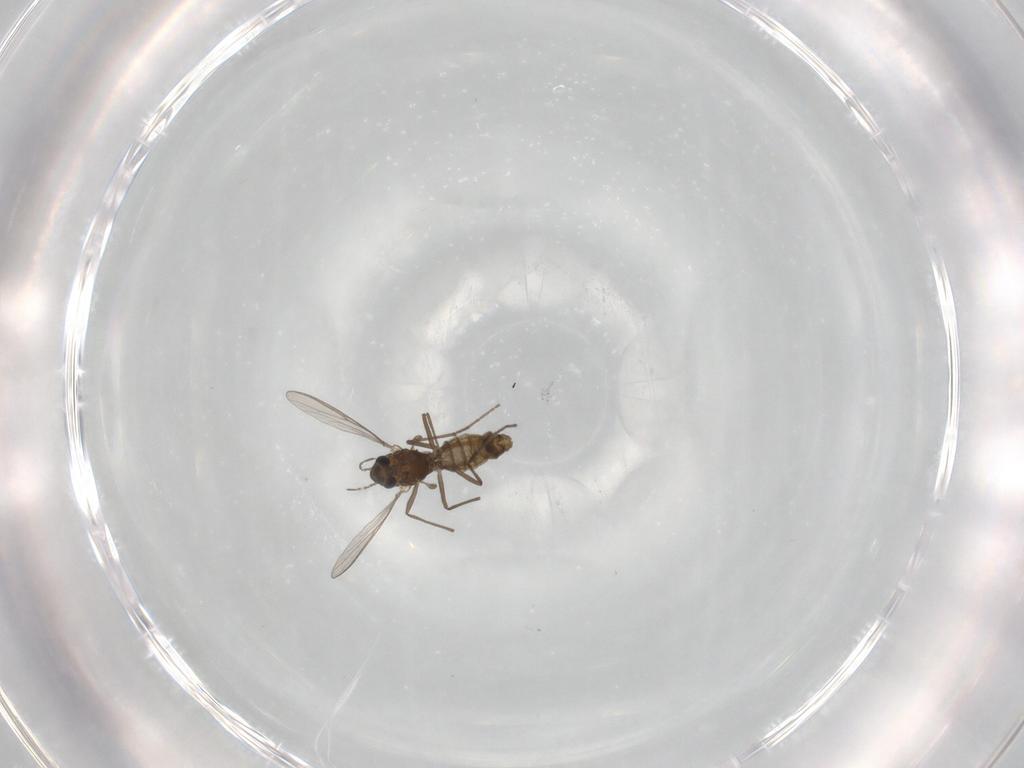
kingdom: Animalia
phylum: Arthropoda
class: Insecta
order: Diptera
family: Chironomidae
